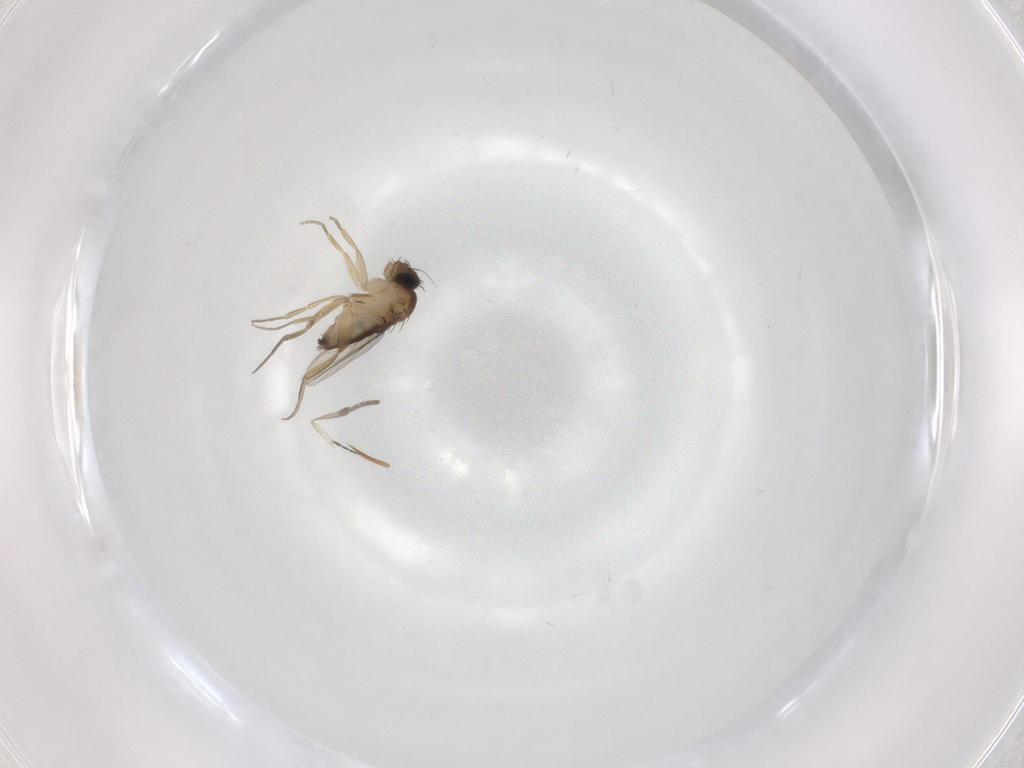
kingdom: Animalia
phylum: Arthropoda
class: Insecta
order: Diptera
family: Phoridae
